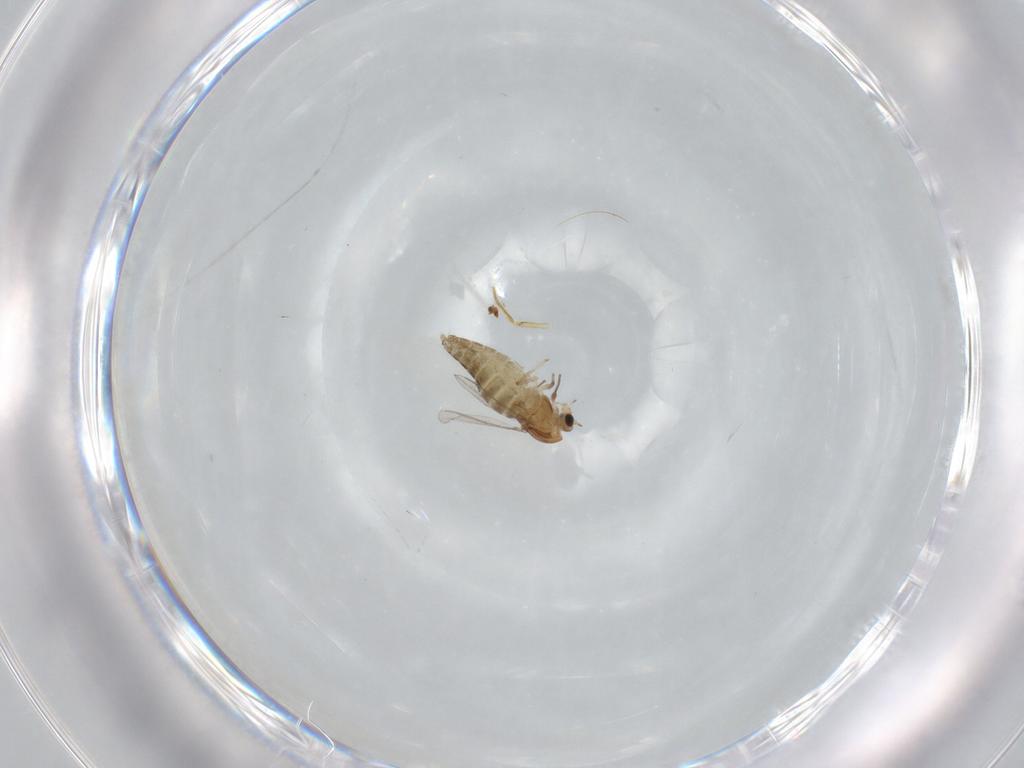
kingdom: Animalia
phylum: Arthropoda
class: Insecta
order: Diptera
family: Chironomidae
